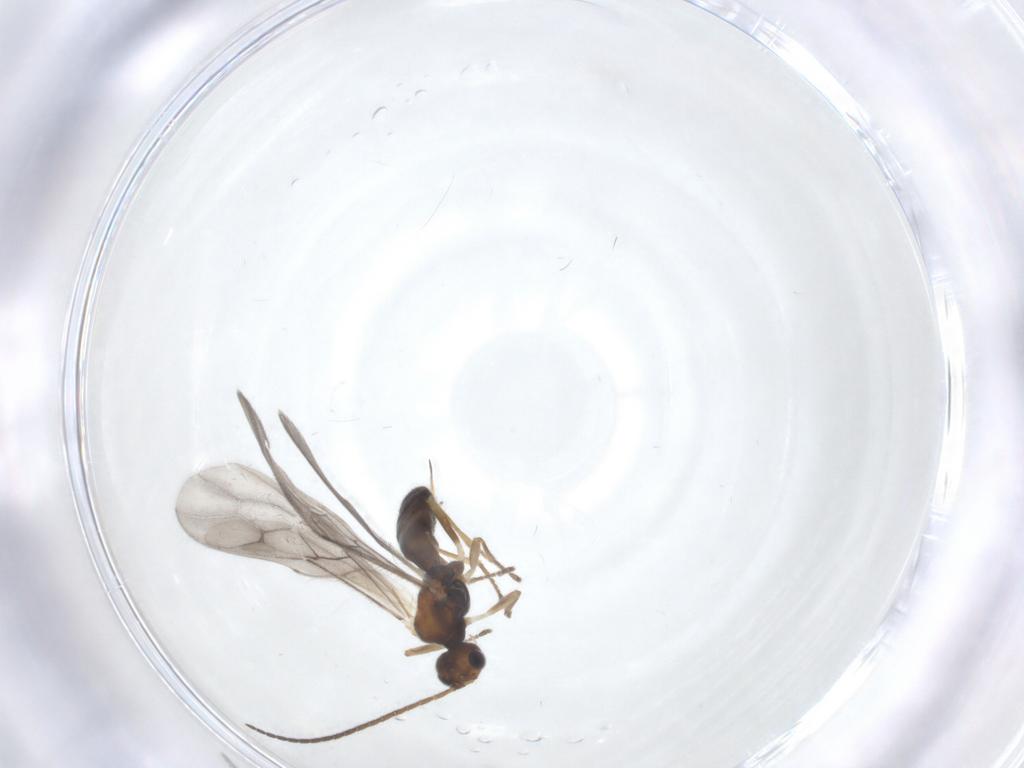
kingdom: Animalia
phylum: Arthropoda
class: Insecta
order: Hymenoptera
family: Braconidae
